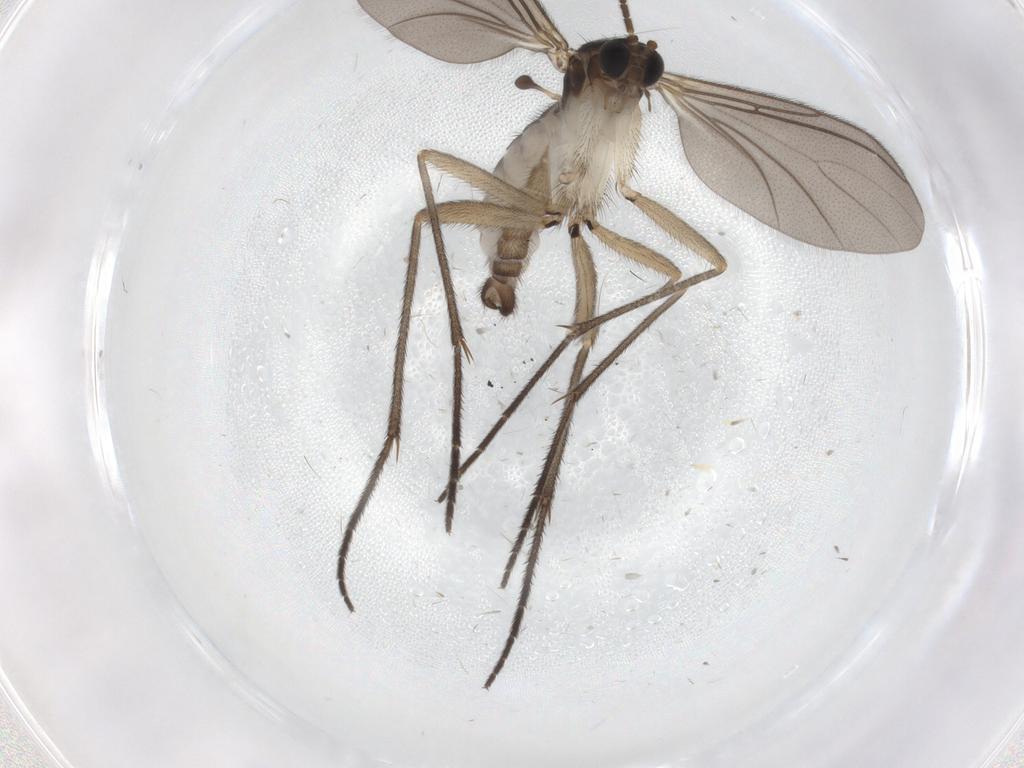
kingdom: Animalia
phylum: Arthropoda
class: Insecta
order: Diptera
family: Sciaridae
